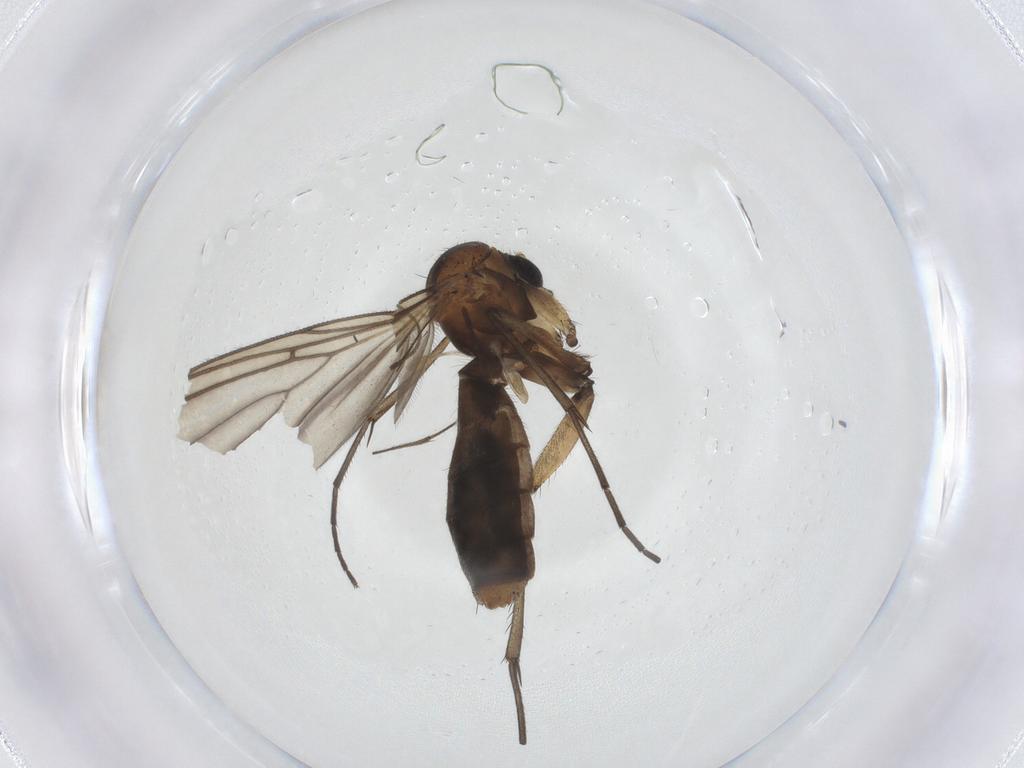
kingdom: Animalia
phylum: Arthropoda
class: Insecta
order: Diptera
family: Mycetophilidae
